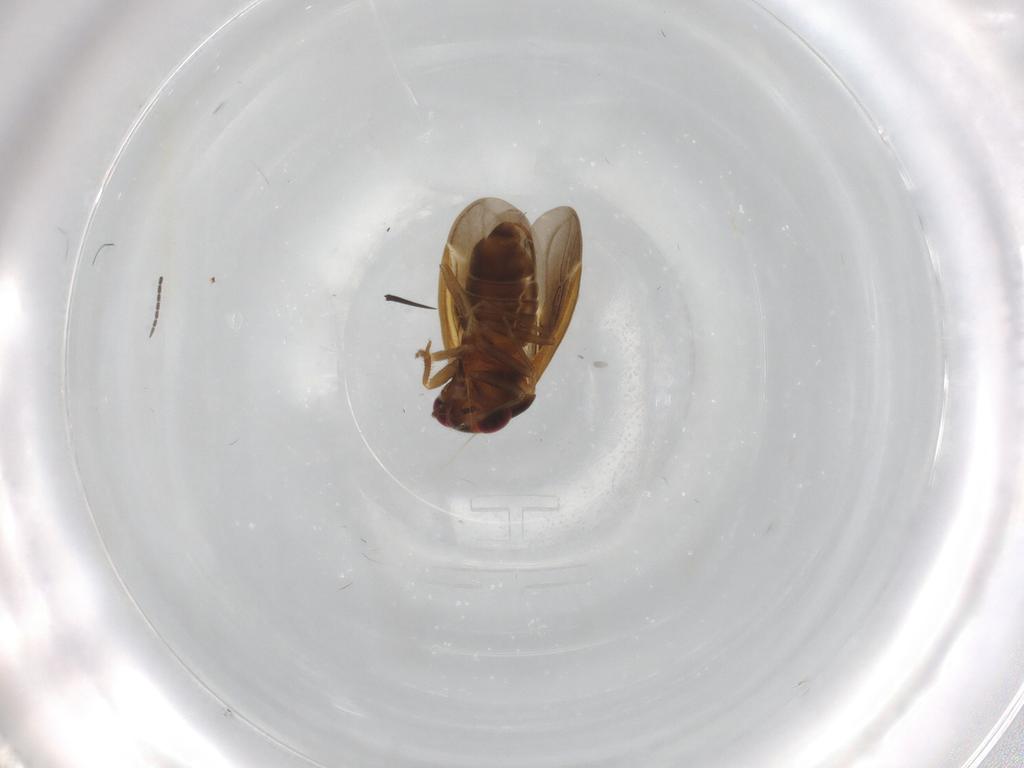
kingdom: Animalia
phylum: Arthropoda
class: Insecta
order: Hemiptera
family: Schizopteridae
